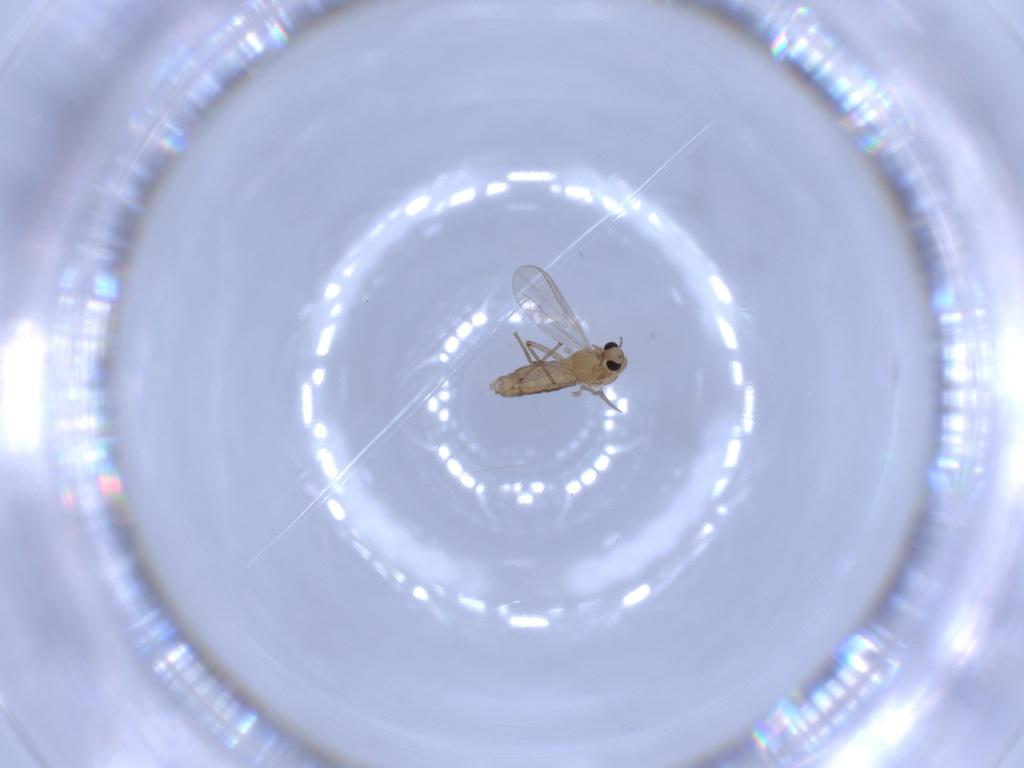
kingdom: Animalia
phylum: Arthropoda
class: Insecta
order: Diptera
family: Chironomidae
